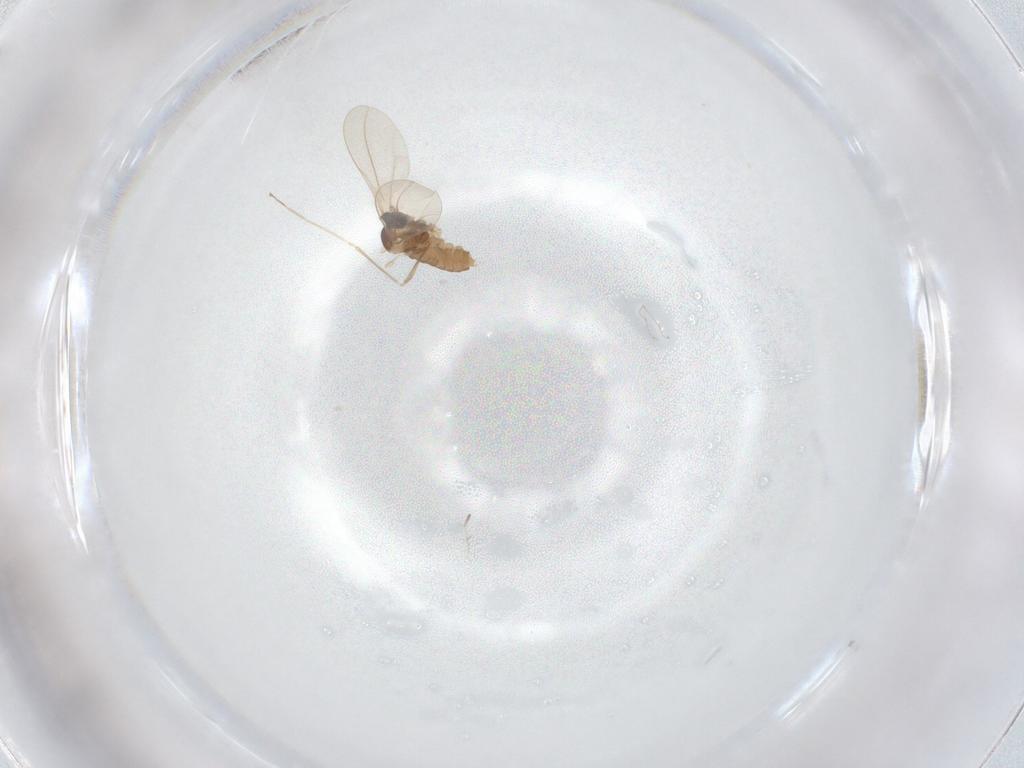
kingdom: Animalia
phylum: Arthropoda
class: Insecta
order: Diptera
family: Cecidomyiidae
